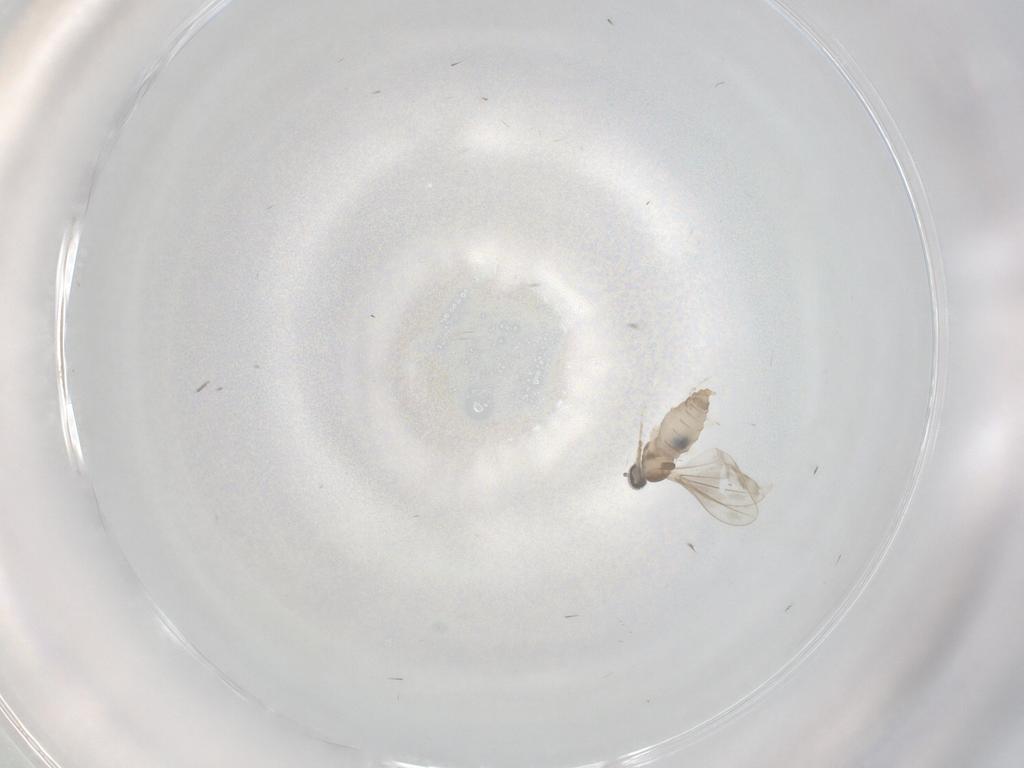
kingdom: Animalia
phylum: Arthropoda
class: Insecta
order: Diptera
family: Cecidomyiidae
